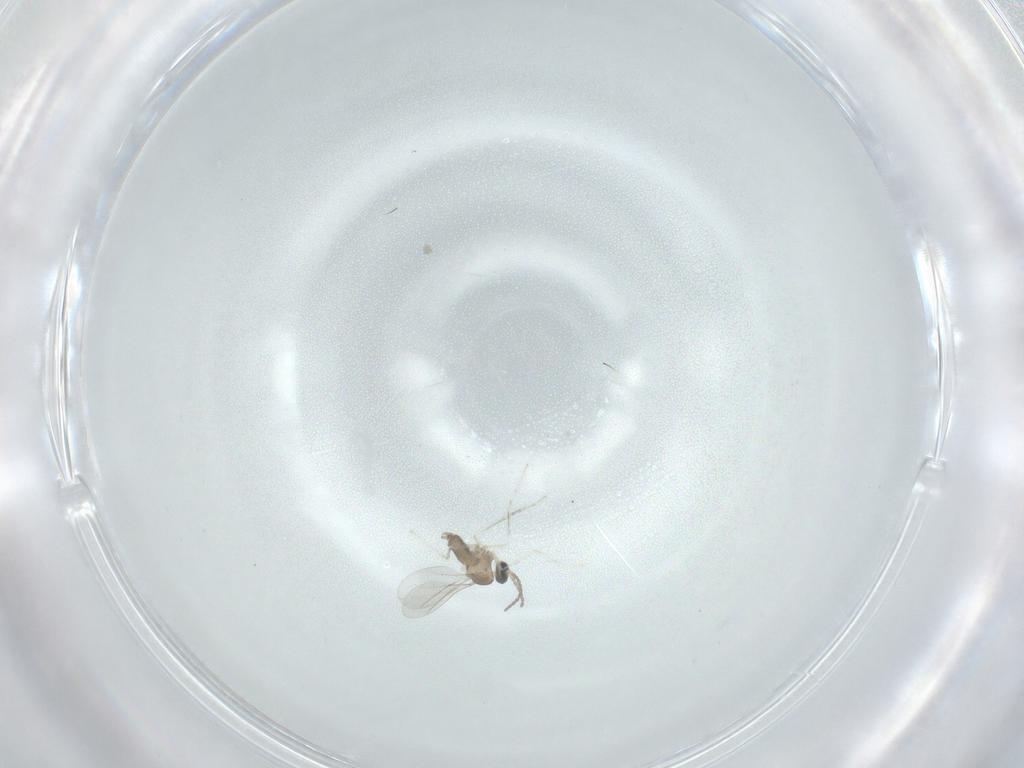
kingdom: Animalia
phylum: Arthropoda
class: Insecta
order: Diptera
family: Cecidomyiidae
